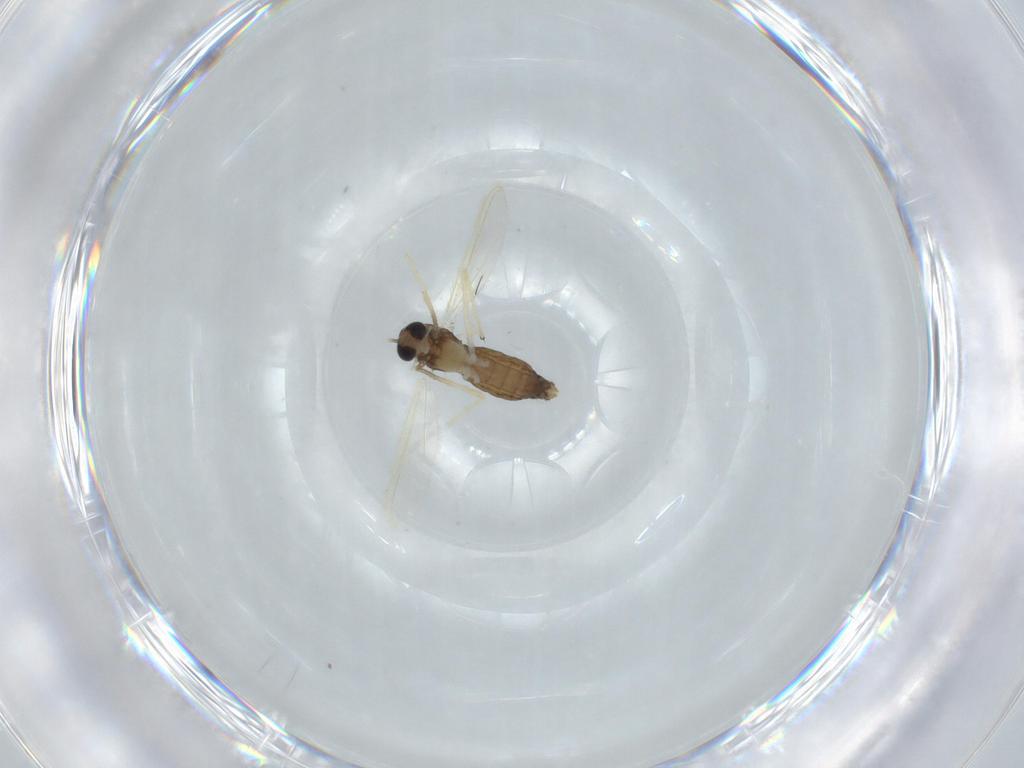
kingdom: Animalia
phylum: Arthropoda
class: Insecta
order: Diptera
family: Chironomidae
